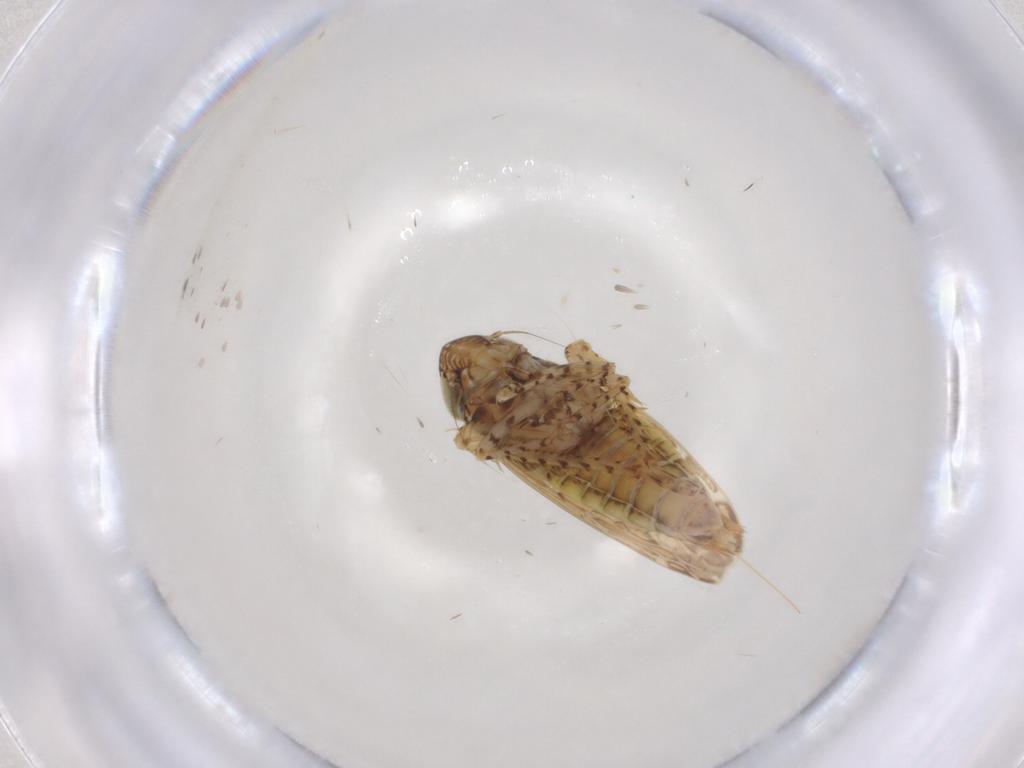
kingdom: Animalia
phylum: Arthropoda
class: Insecta
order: Hemiptera
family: Cicadellidae
